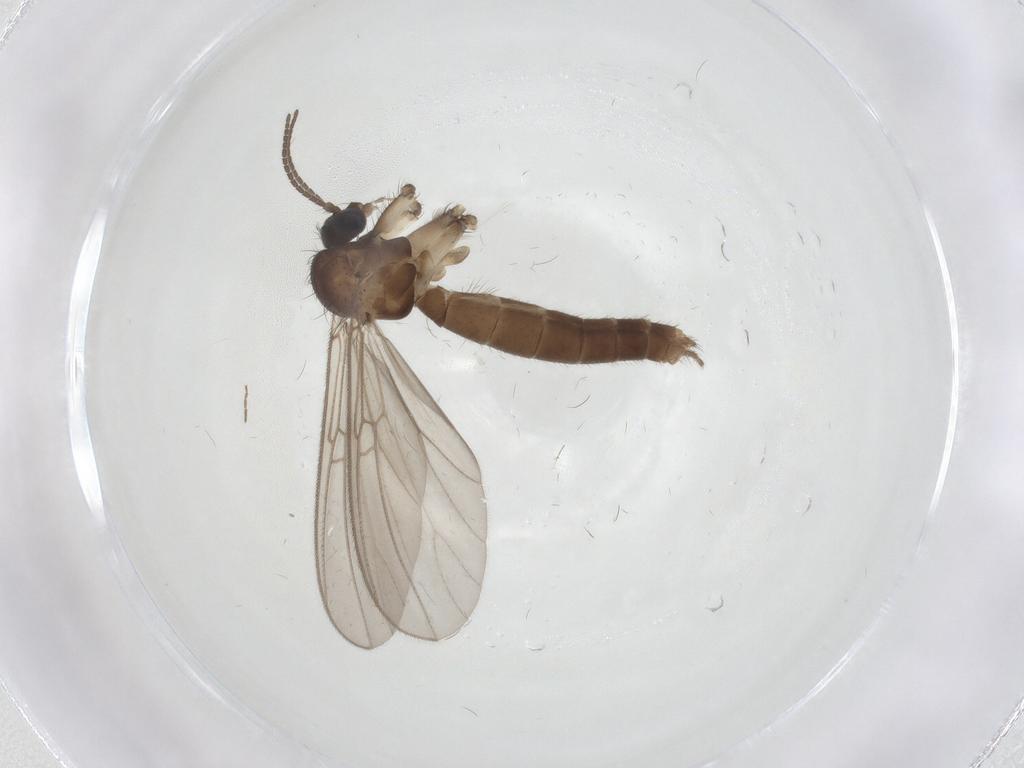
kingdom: Animalia
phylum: Arthropoda
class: Insecta
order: Diptera
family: Mycetophilidae
